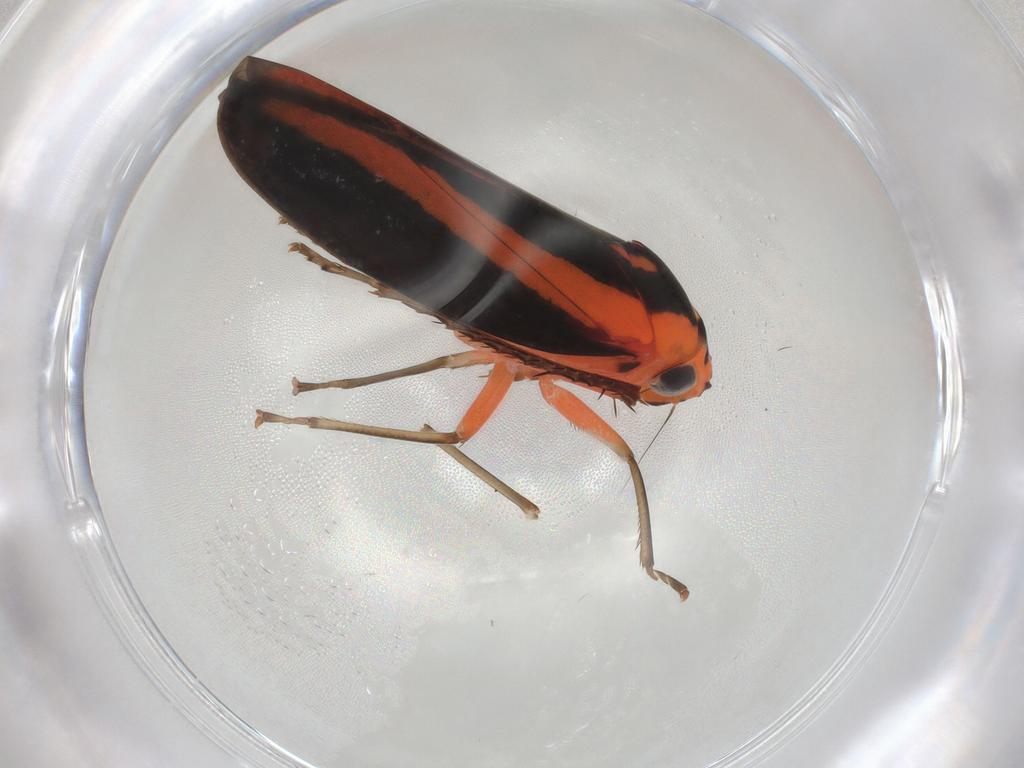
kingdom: Animalia
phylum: Arthropoda
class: Insecta
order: Hemiptera
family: Cicadellidae
